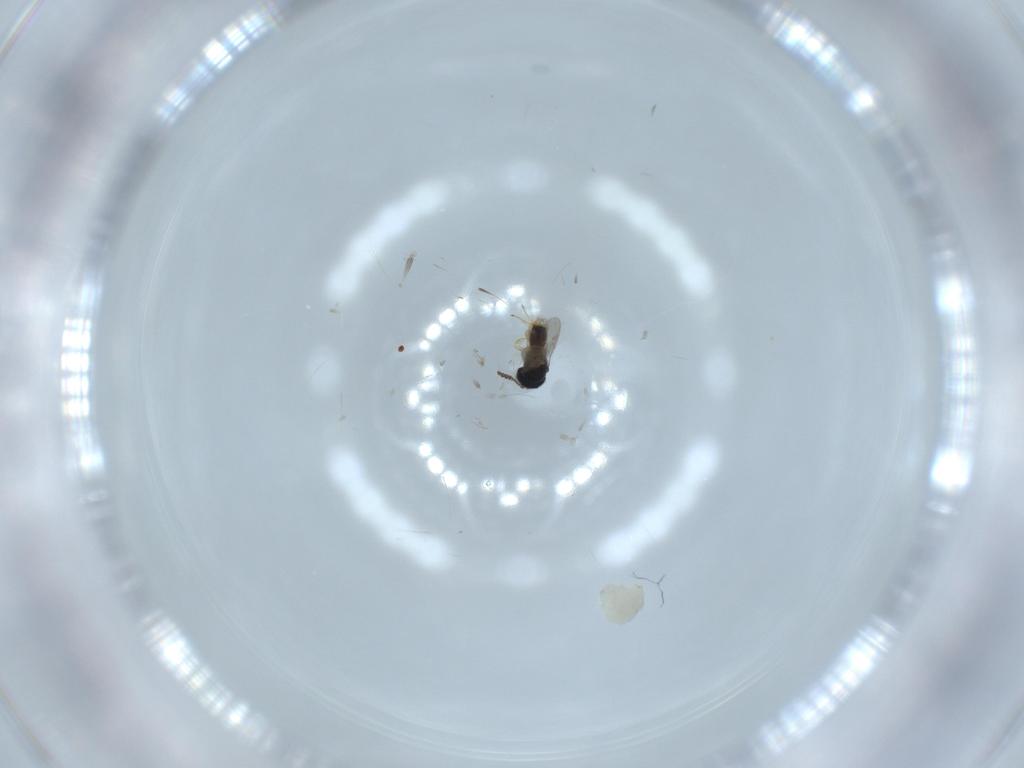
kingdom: Animalia
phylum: Arthropoda
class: Insecta
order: Hymenoptera
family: Scelionidae
